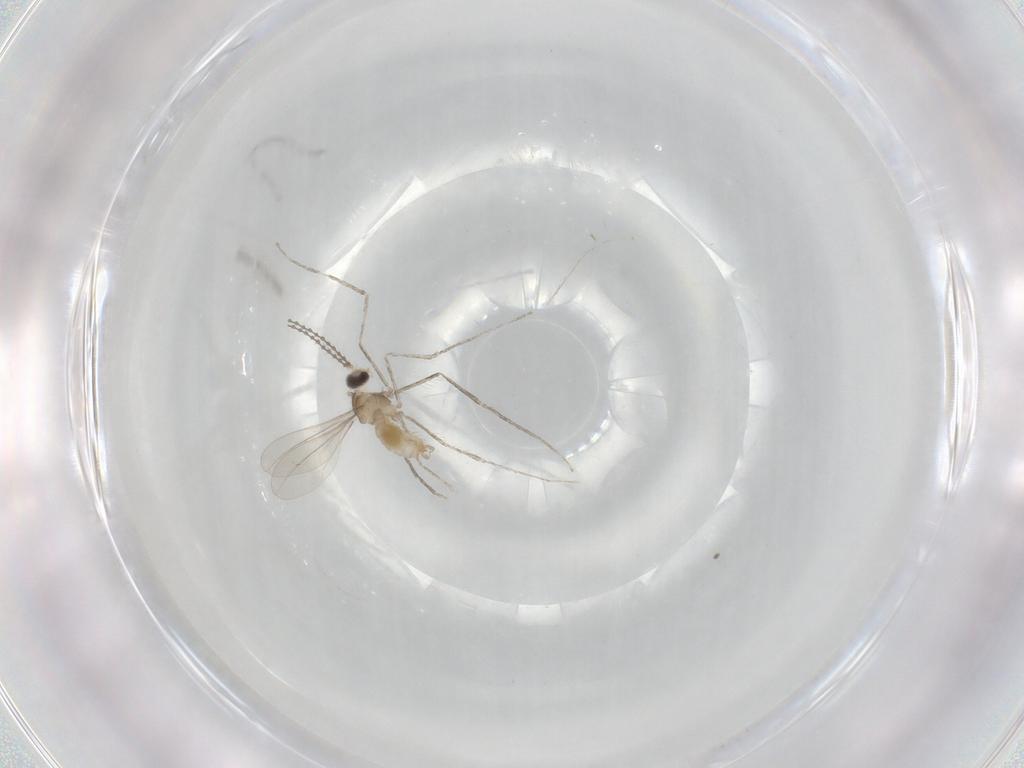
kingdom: Animalia
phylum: Arthropoda
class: Insecta
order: Diptera
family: Cecidomyiidae
